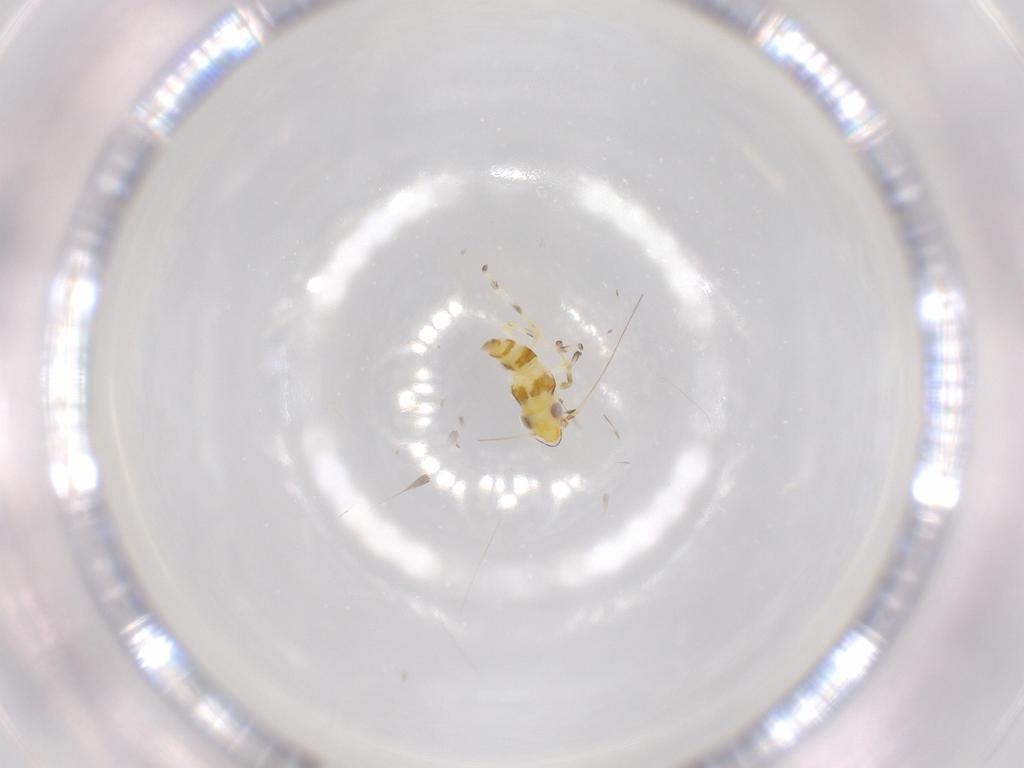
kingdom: Animalia
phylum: Arthropoda
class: Insecta
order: Hemiptera
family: Cicadellidae
